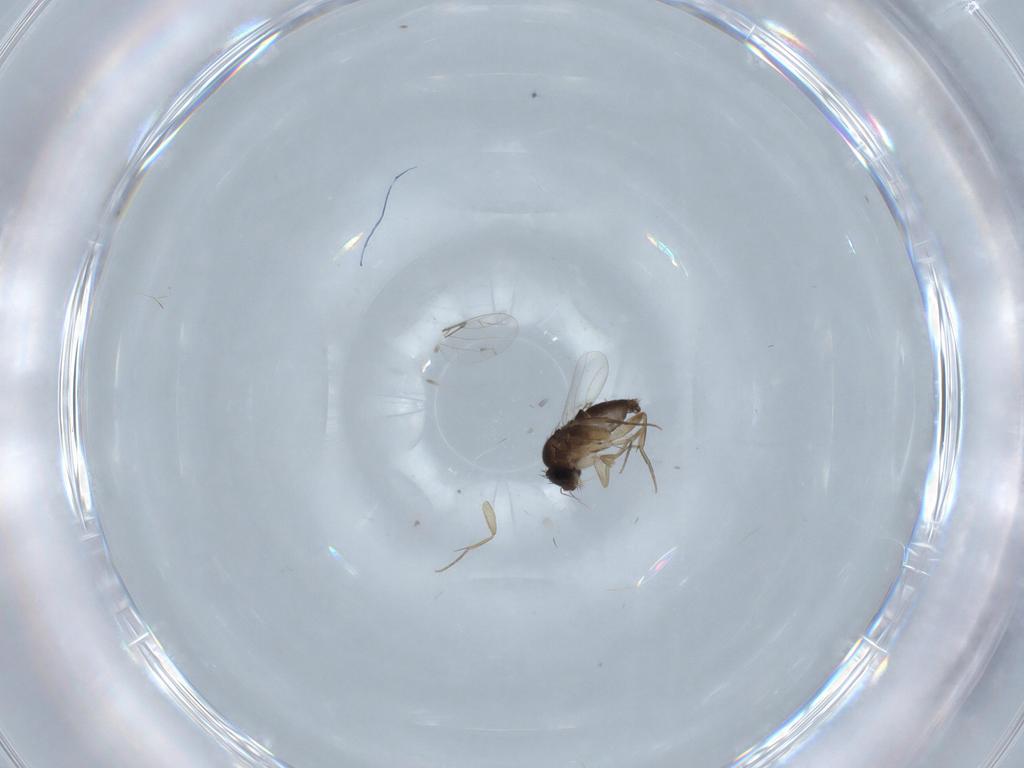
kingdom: Animalia
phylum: Arthropoda
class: Insecta
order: Diptera
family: Phoridae
